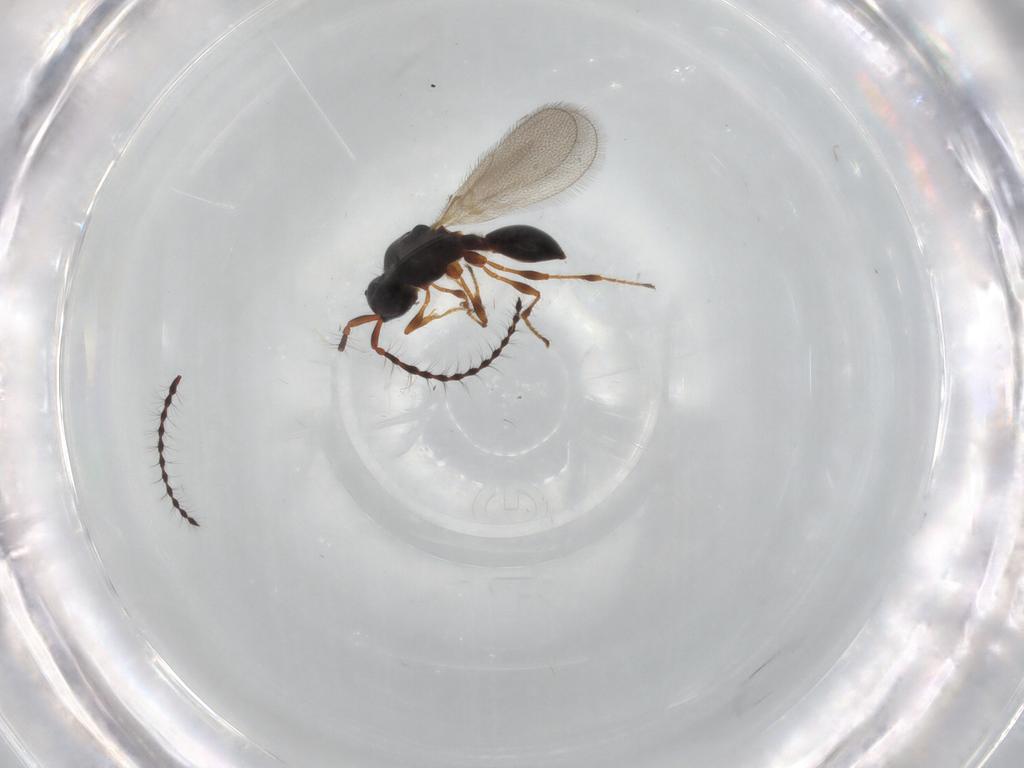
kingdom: Animalia
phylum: Arthropoda
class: Insecta
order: Hymenoptera
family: Diapriidae
